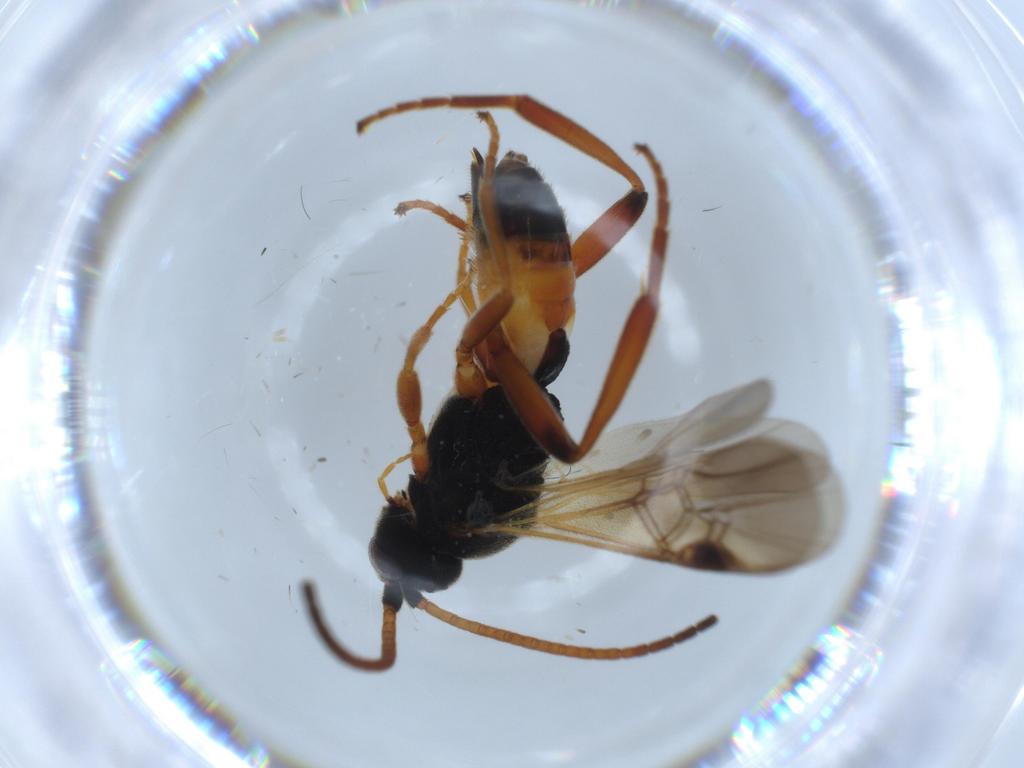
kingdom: Animalia
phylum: Arthropoda
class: Insecta
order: Hymenoptera
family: Braconidae
